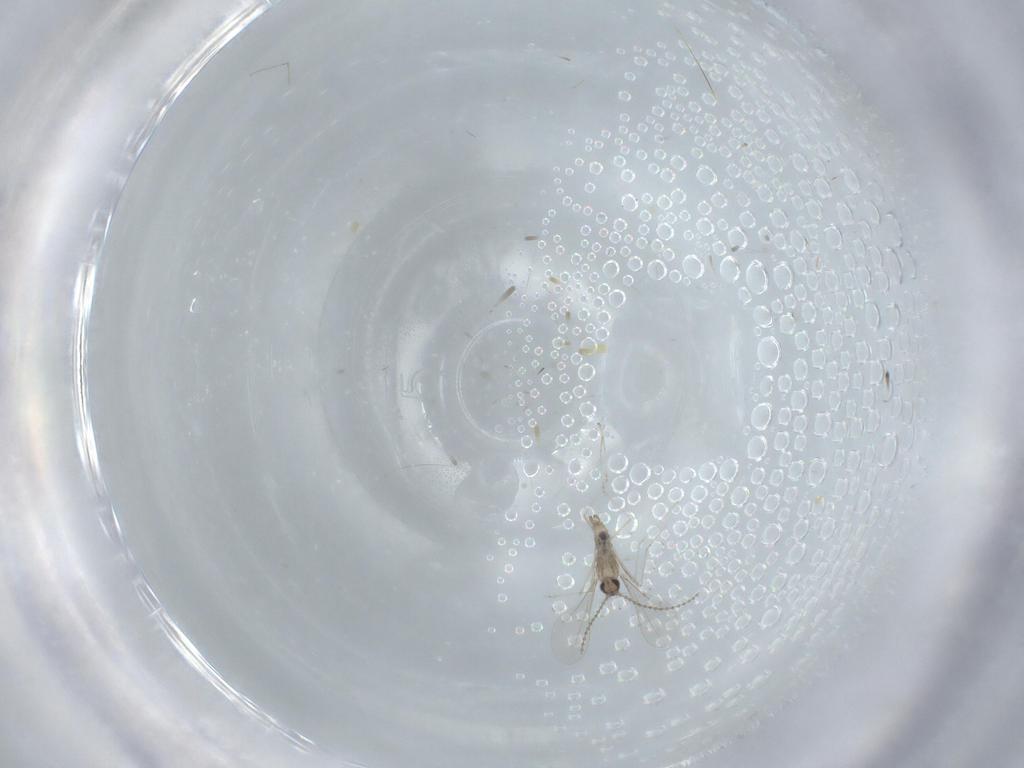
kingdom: Animalia
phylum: Arthropoda
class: Insecta
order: Diptera
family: Cecidomyiidae
